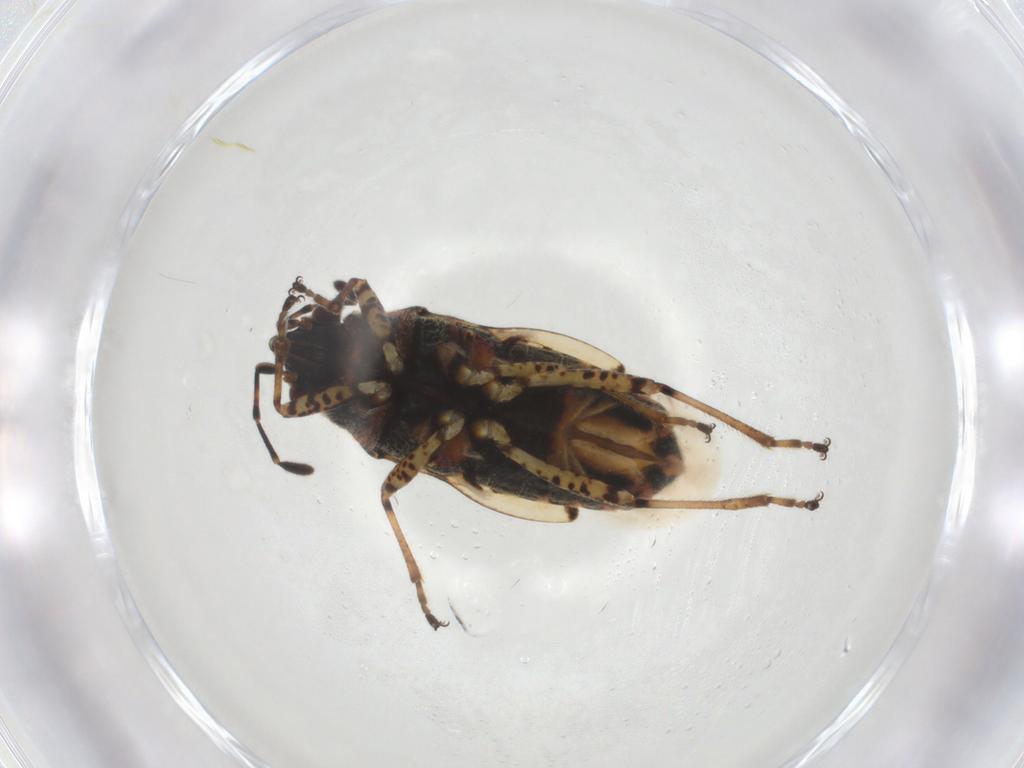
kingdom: Animalia
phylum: Arthropoda
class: Insecta
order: Hemiptera
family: Lygaeidae
